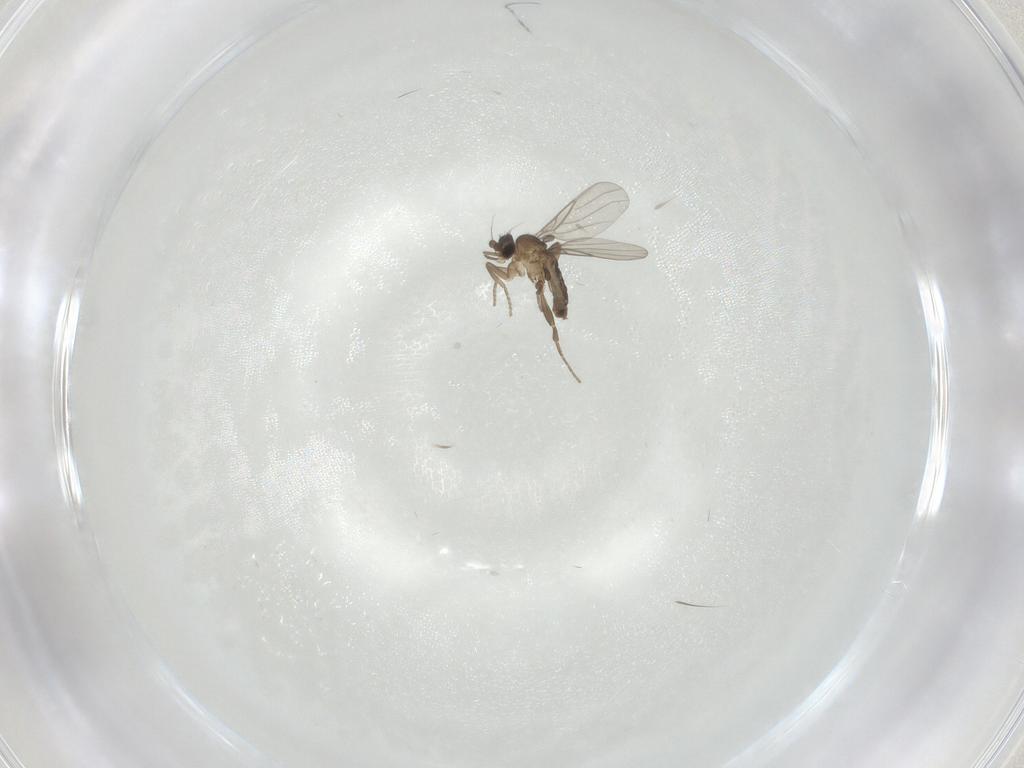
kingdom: Animalia
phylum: Arthropoda
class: Insecta
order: Diptera
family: Phoridae
